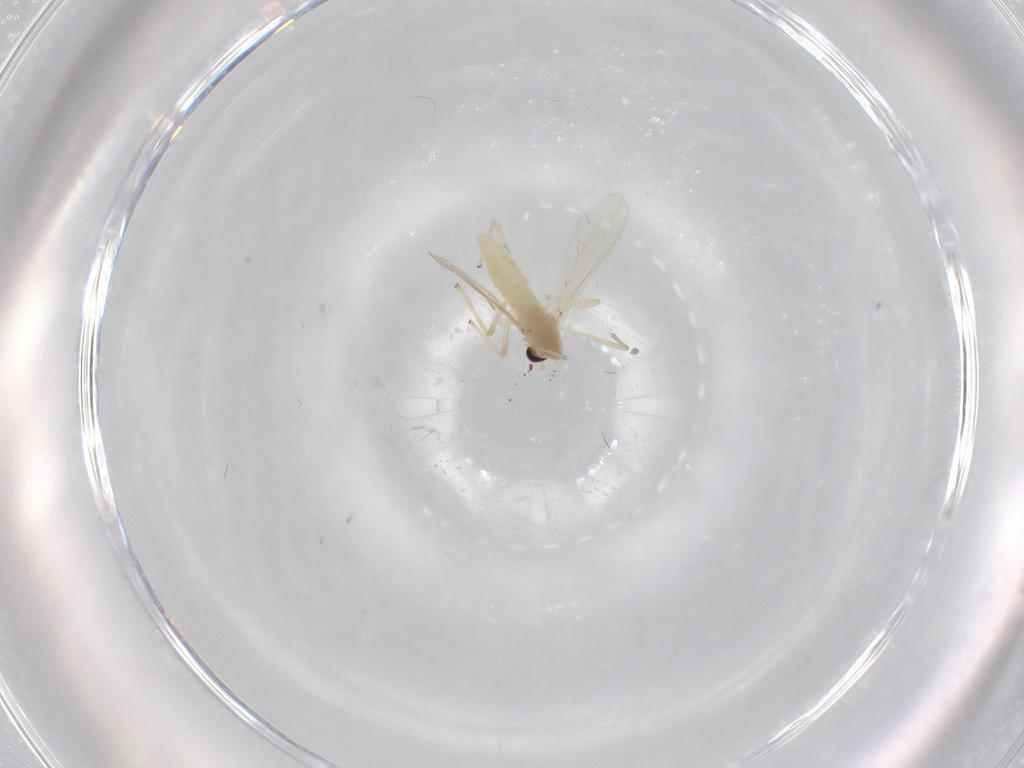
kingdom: Animalia
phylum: Arthropoda
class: Insecta
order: Diptera
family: Chironomidae
